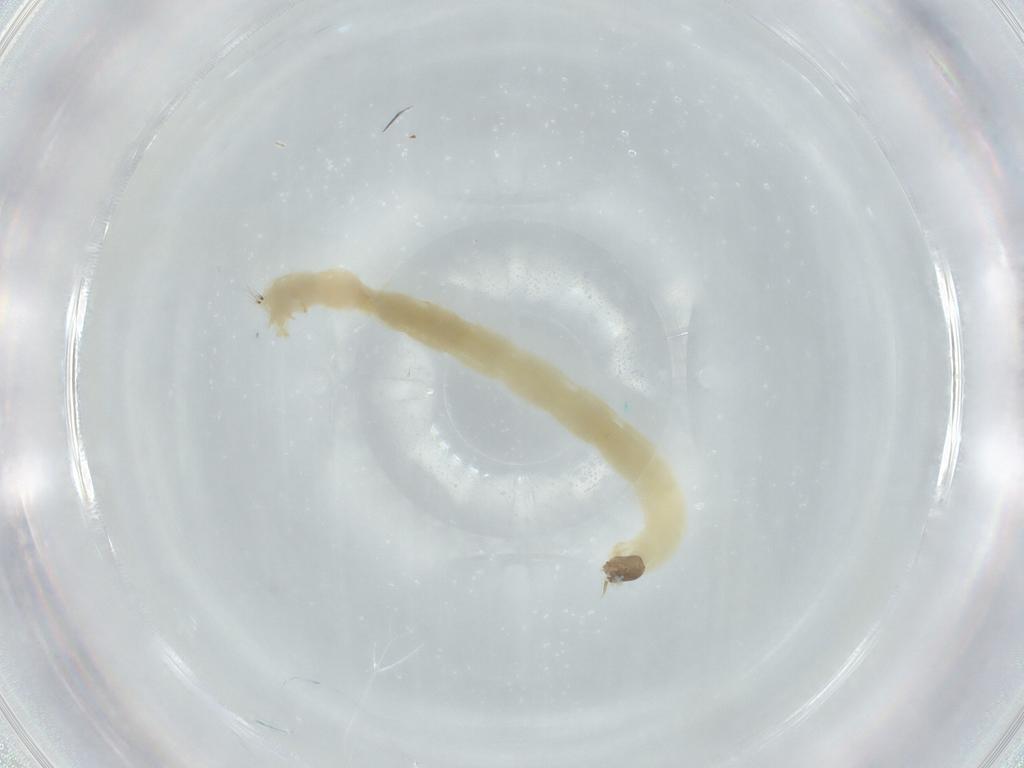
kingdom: Animalia
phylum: Arthropoda
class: Insecta
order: Diptera
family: Chironomidae
